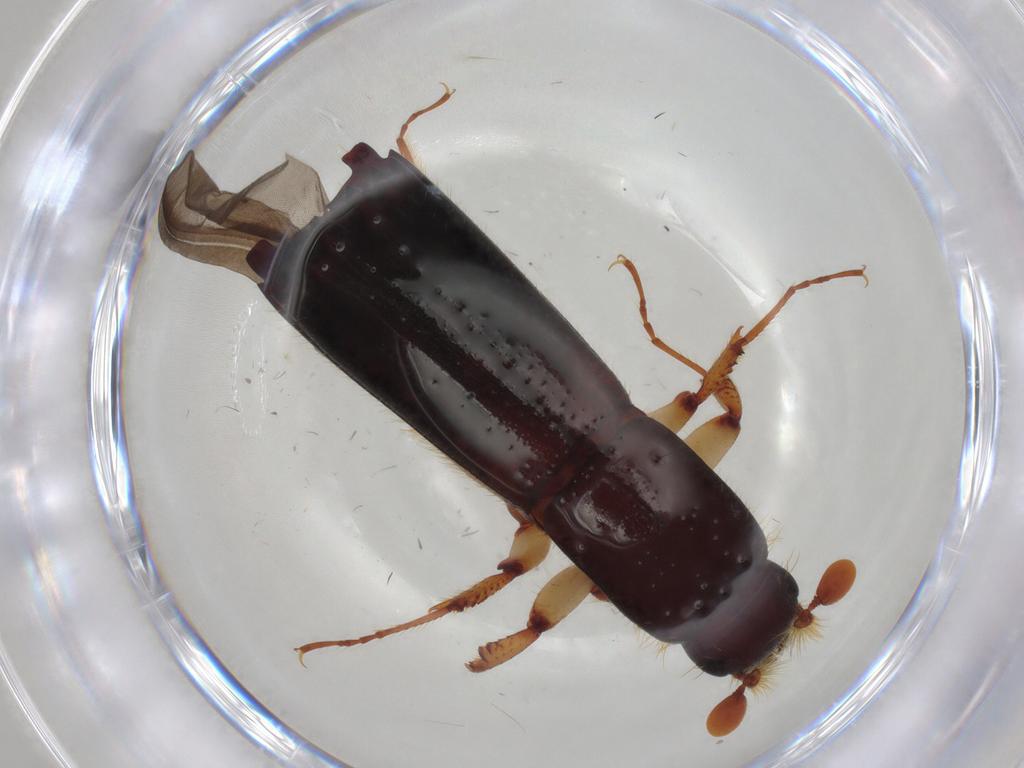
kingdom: Animalia
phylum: Arthropoda
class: Insecta
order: Coleoptera
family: Curculionidae
